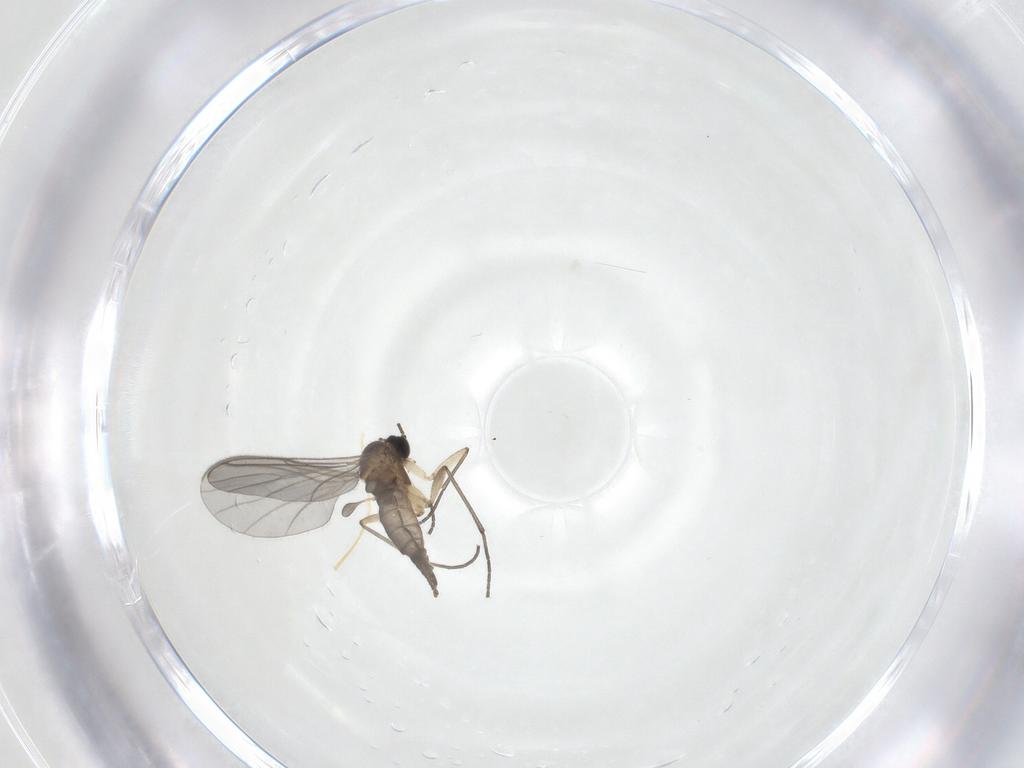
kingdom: Animalia
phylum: Arthropoda
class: Insecta
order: Diptera
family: Sciaridae
